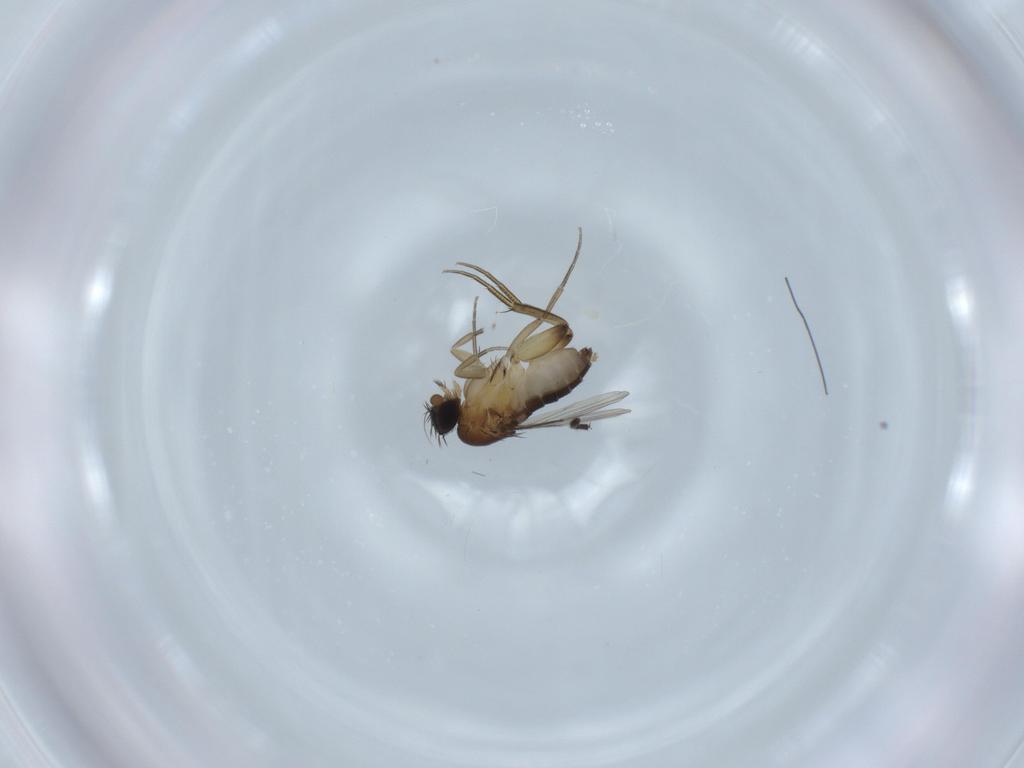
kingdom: Animalia
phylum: Arthropoda
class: Insecta
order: Diptera
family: Phoridae
